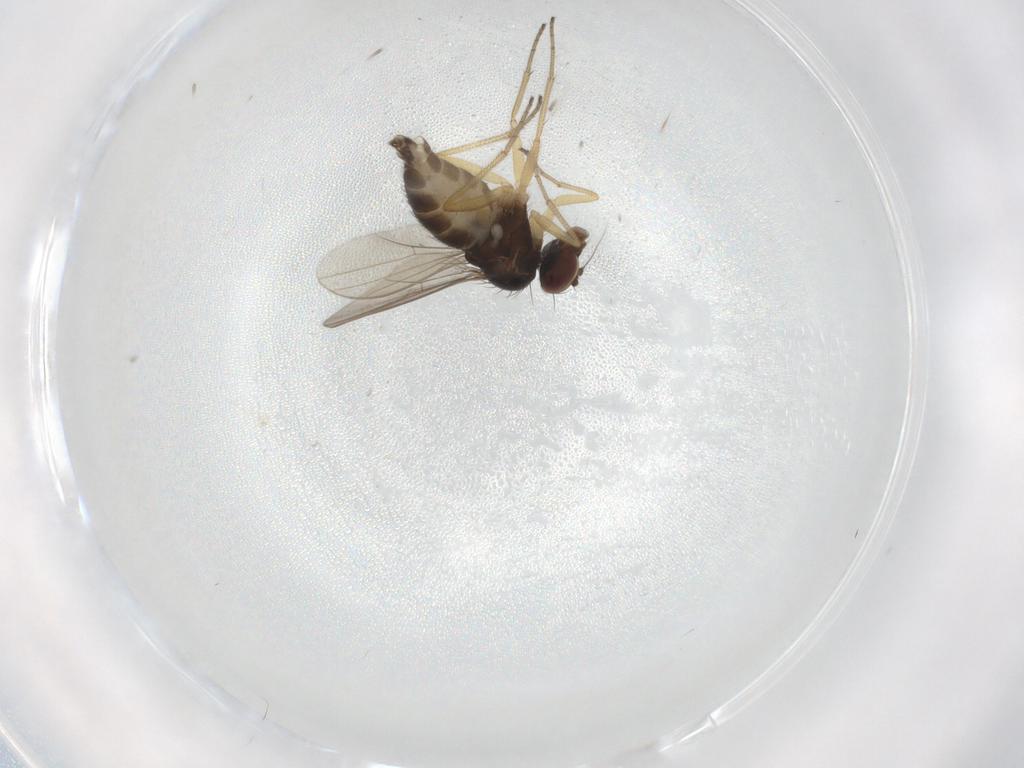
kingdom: Animalia
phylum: Arthropoda
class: Insecta
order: Diptera
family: Dolichopodidae
